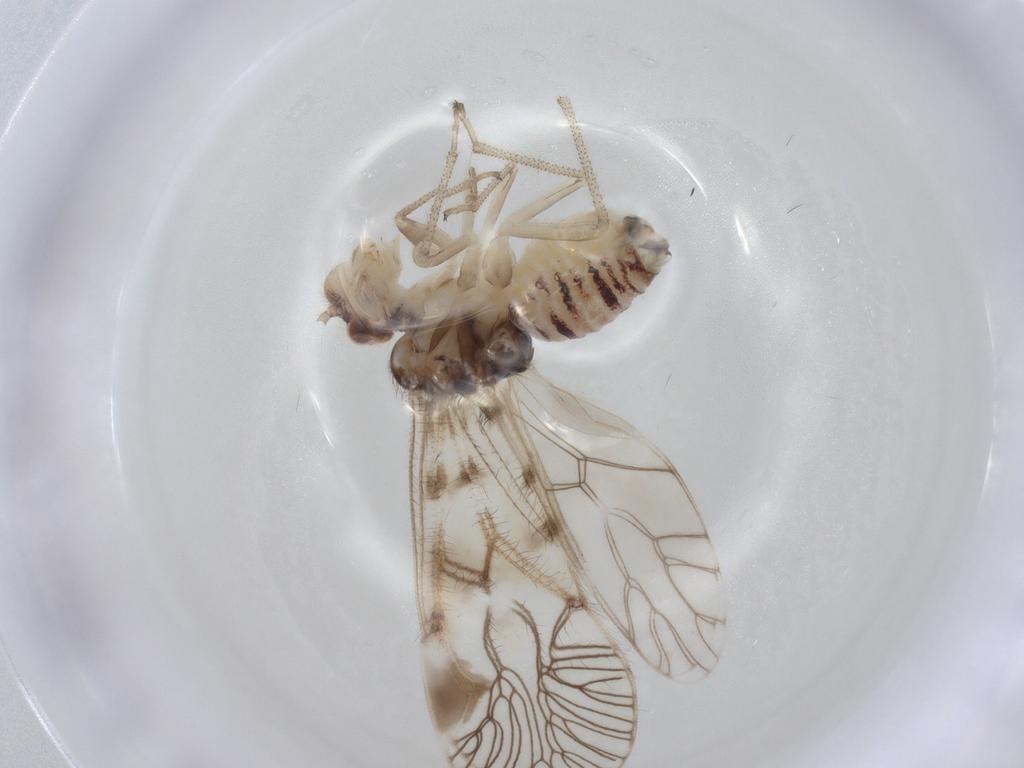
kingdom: Animalia
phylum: Arthropoda
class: Insecta
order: Psocodea
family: Amphipsocidae
